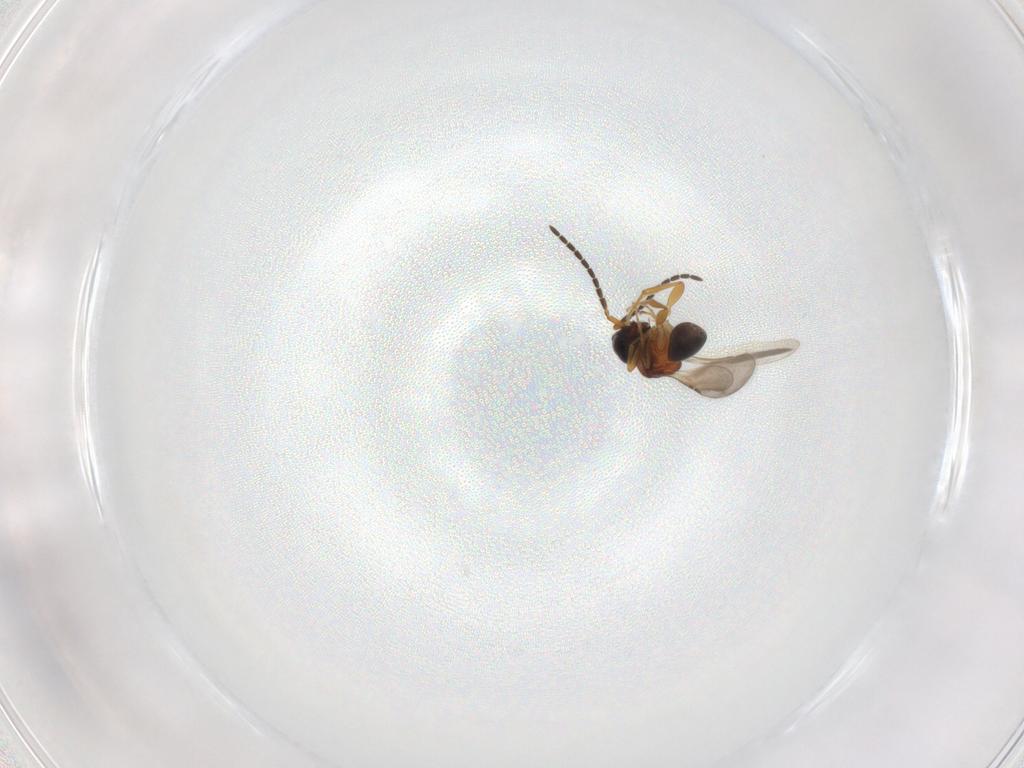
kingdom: Animalia
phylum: Arthropoda
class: Insecta
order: Hymenoptera
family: Ceraphronidae
